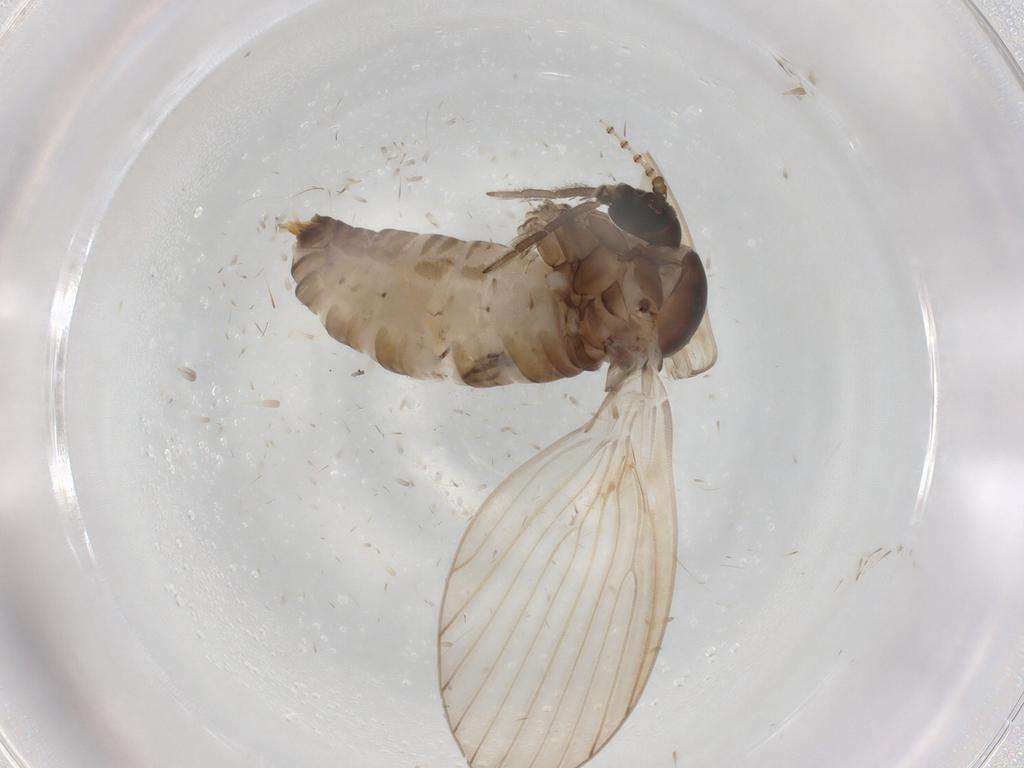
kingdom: Animalia
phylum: Arthropoda
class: Insecta
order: Diptera
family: Psychodidae
